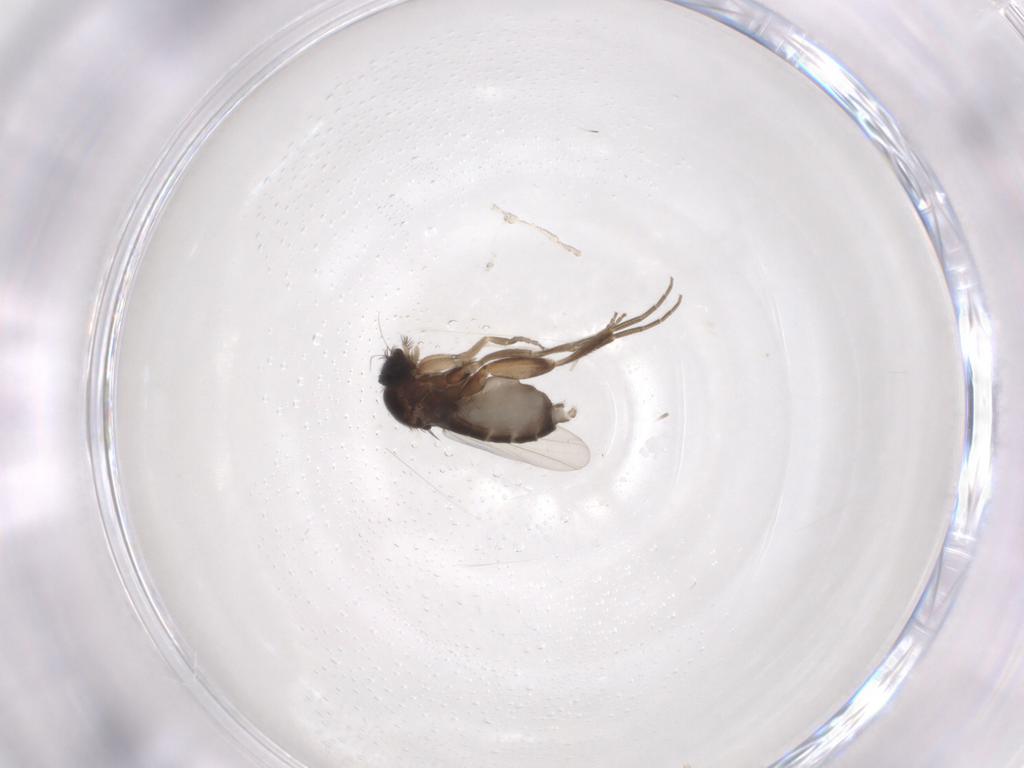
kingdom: Animalia
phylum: Arthropoda
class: Insecta
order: Diptera
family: Phoridae
